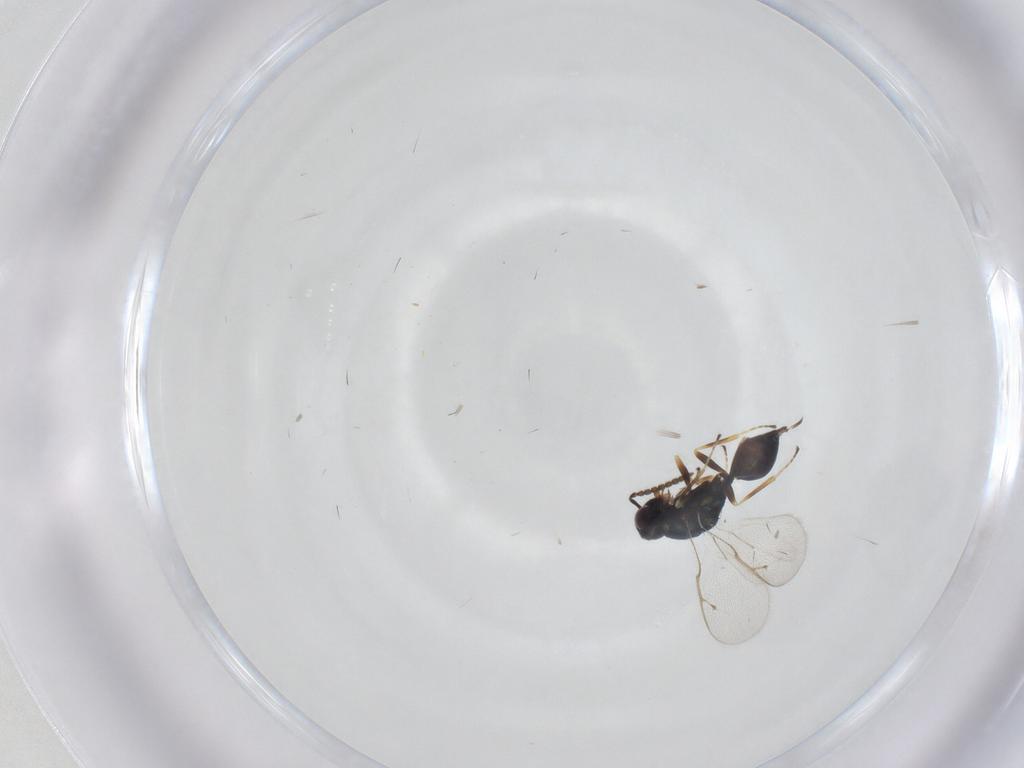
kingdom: Animalia
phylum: Arthropoda
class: Insecta
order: Hymenoptera
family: Pteromalidae
